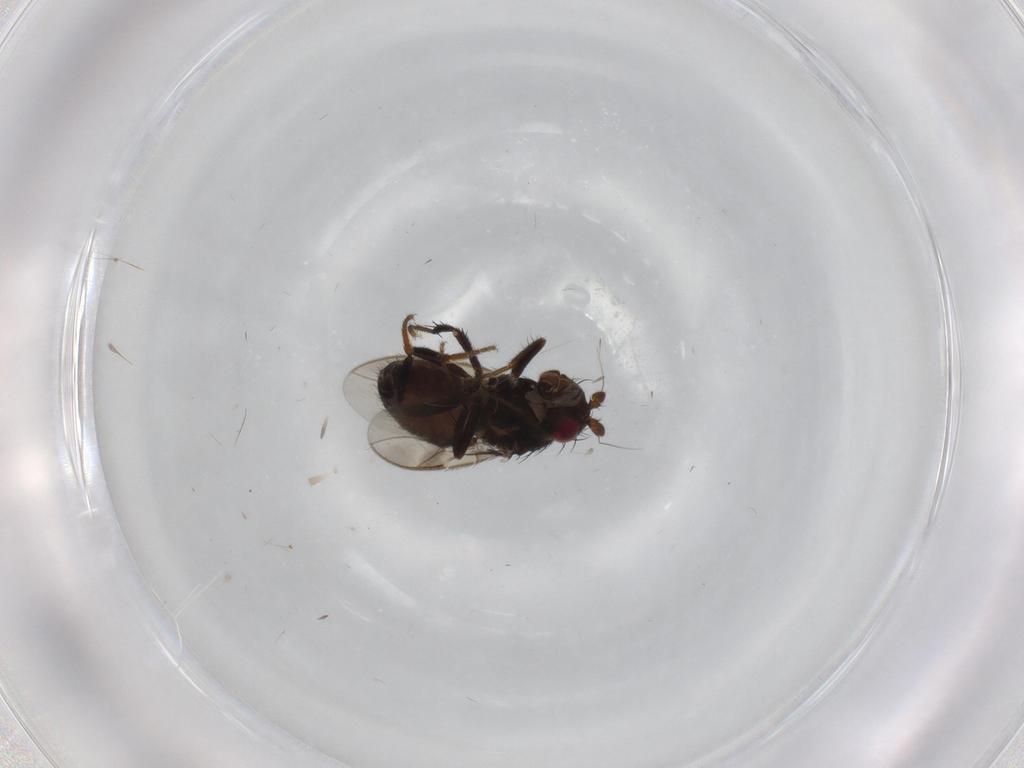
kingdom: Animalia
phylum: Arthropoda
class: Insecta
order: Diptera
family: Sphaeroceridae
